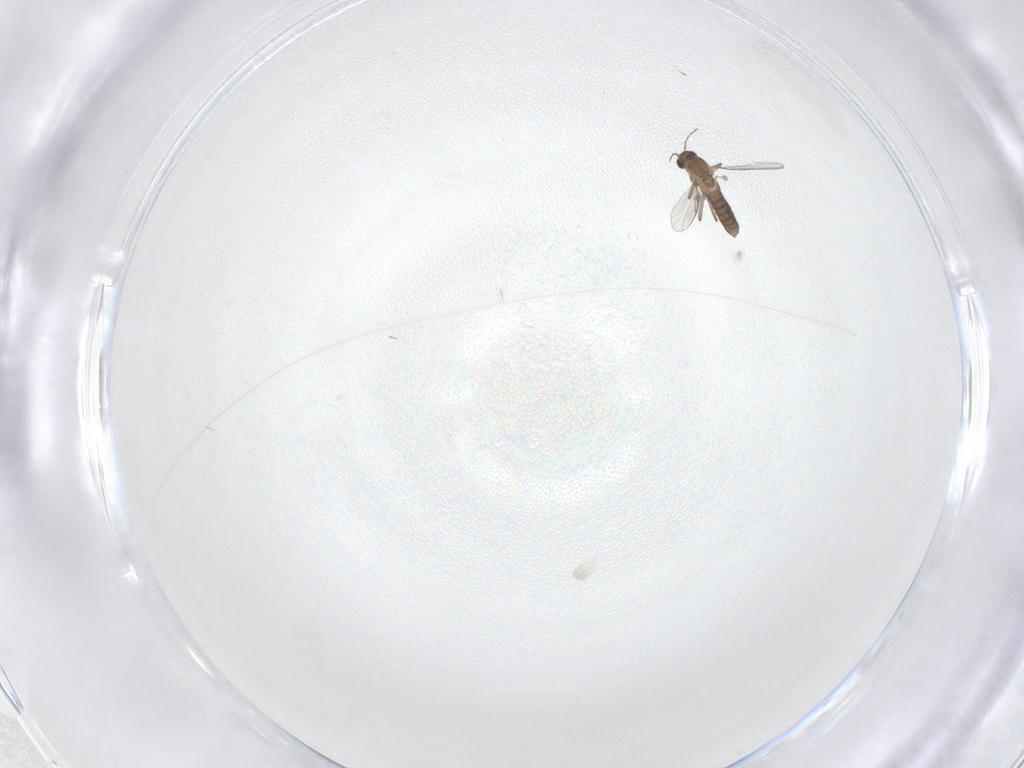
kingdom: Animalia
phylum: Arthropoda
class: Insecta
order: Diptera
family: Chironomidae
